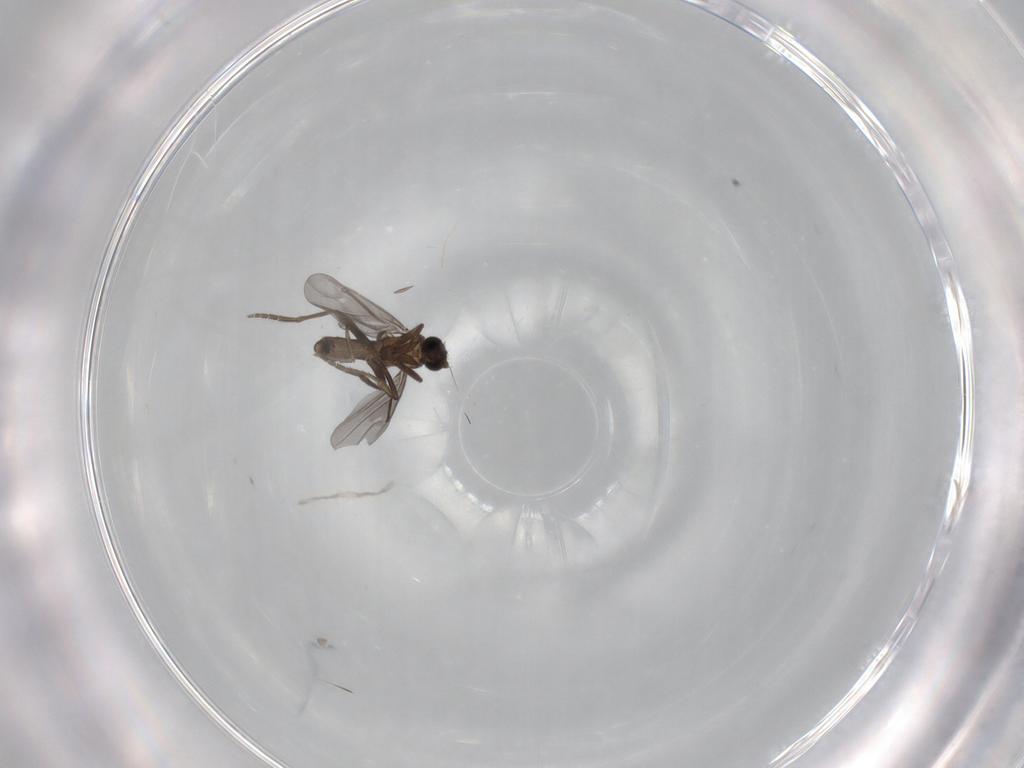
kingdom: Animalia
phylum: Arthropoda
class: Insecta
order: Diptera
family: Phoridae
